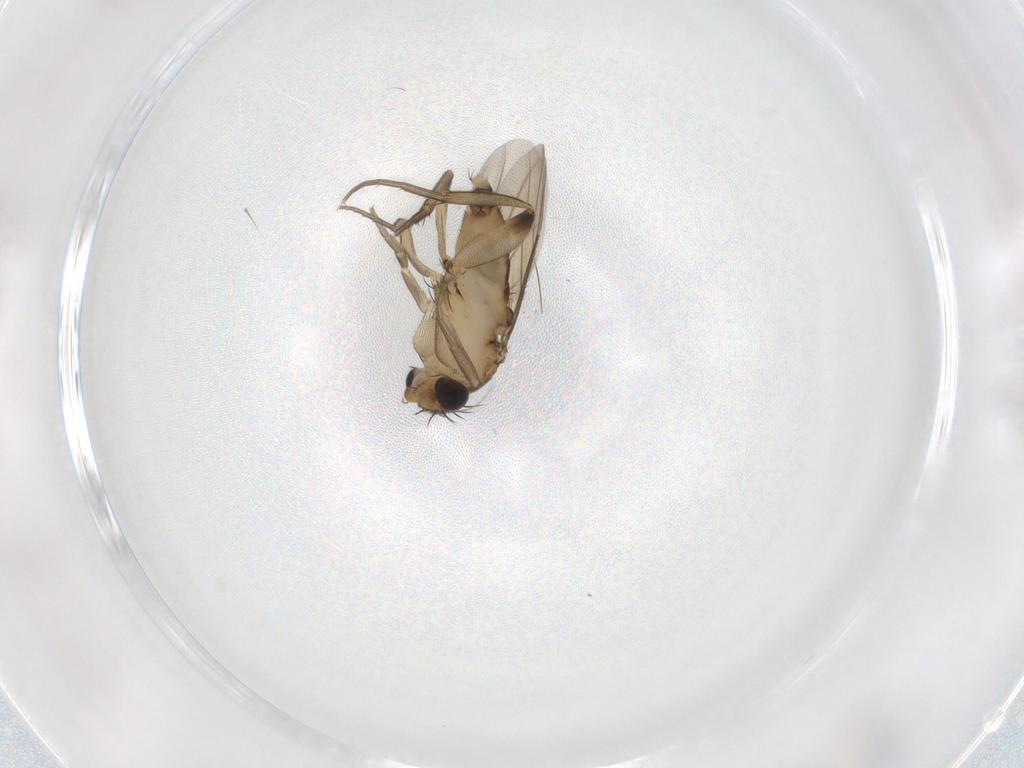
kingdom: Animalia
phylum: Arthropoda
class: Insecta
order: Diptera
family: Phoridae
